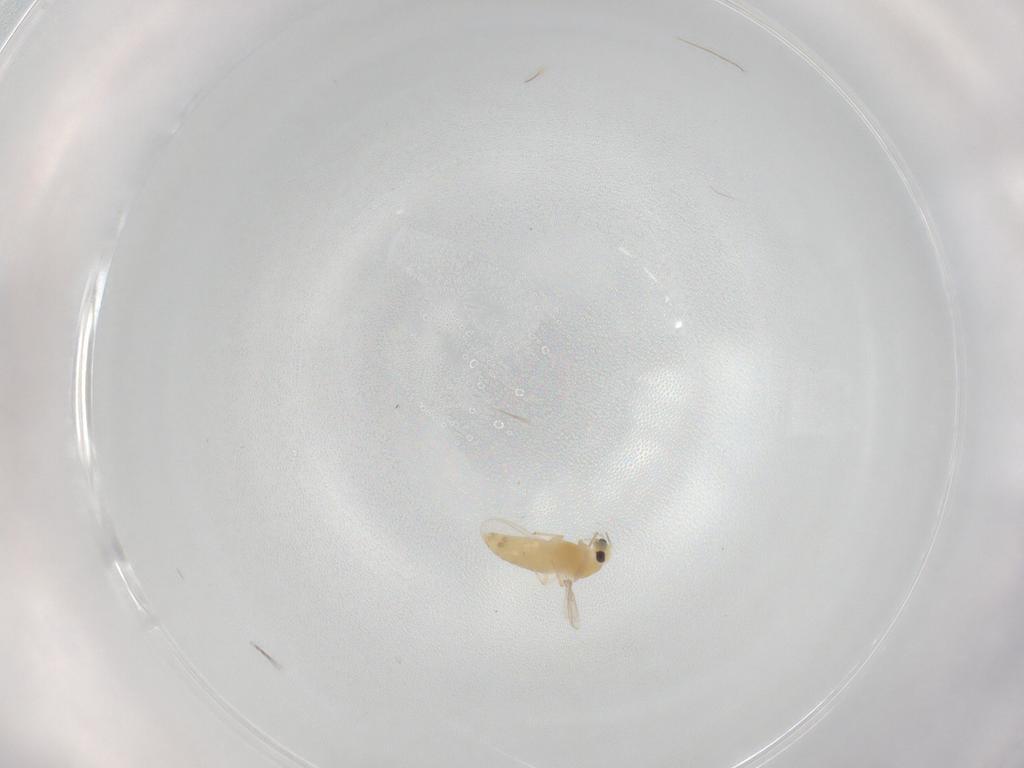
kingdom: Animalia
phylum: Arthropoda
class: Insecta
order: Diptera
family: Chironomidae
